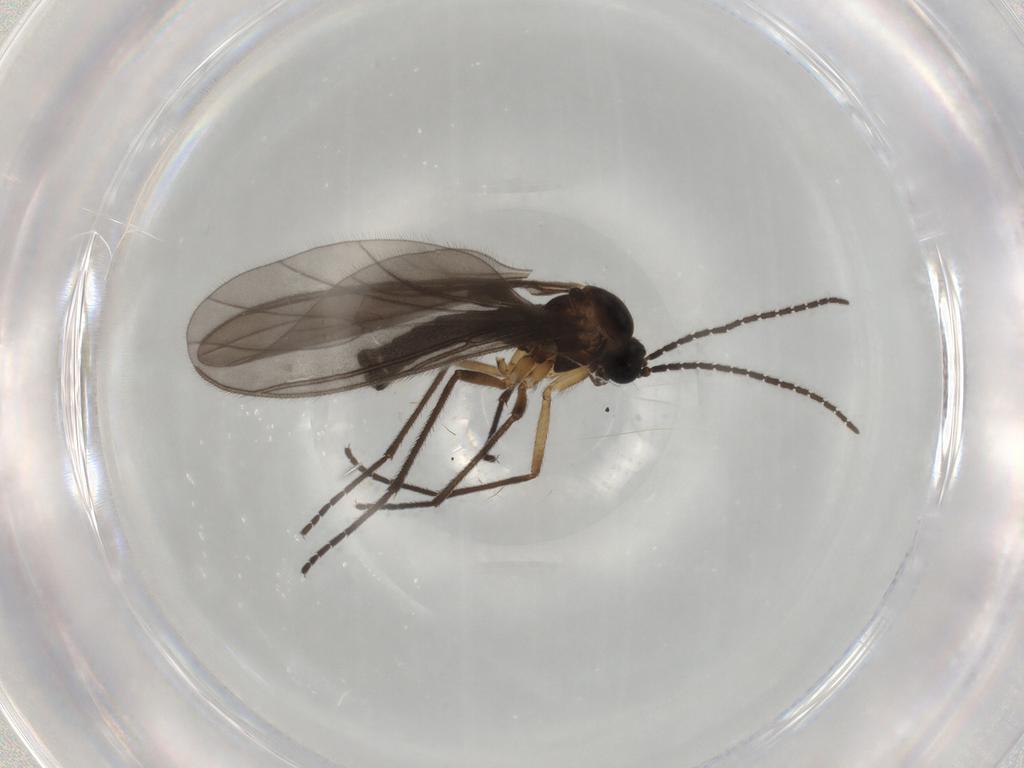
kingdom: Animalia
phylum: Arthropoda
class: Insecta
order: Diptera
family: Sciaridae
